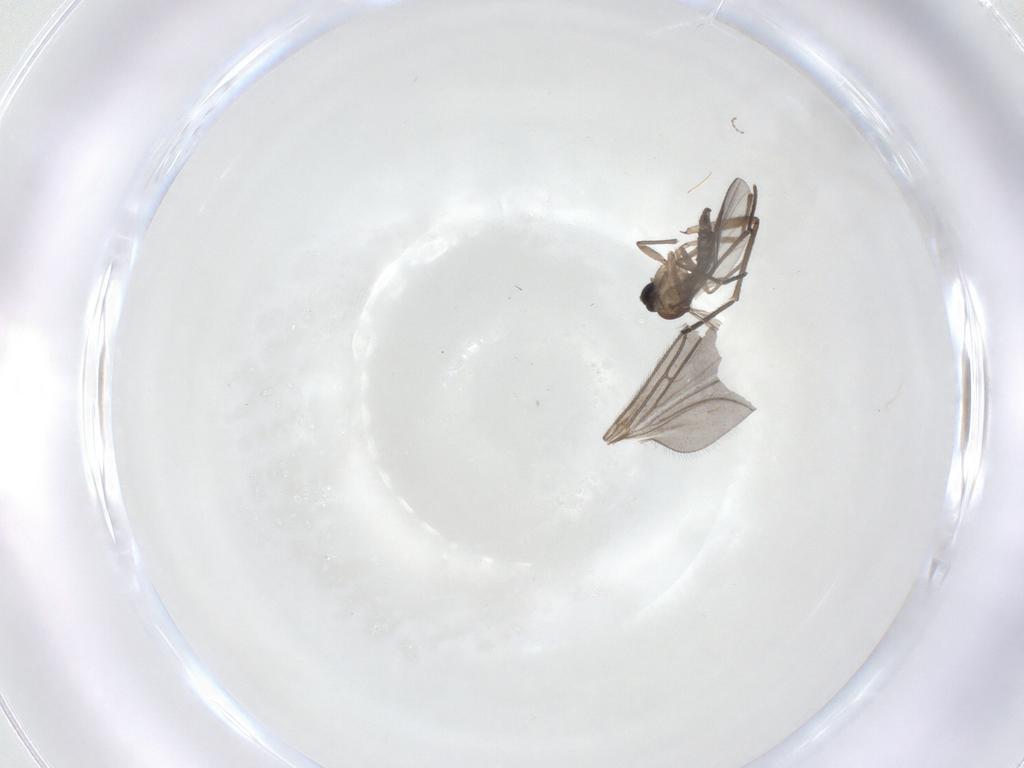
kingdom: Animalia
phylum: Arthropoda
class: Insecta
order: Diptera
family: Sciaridae
